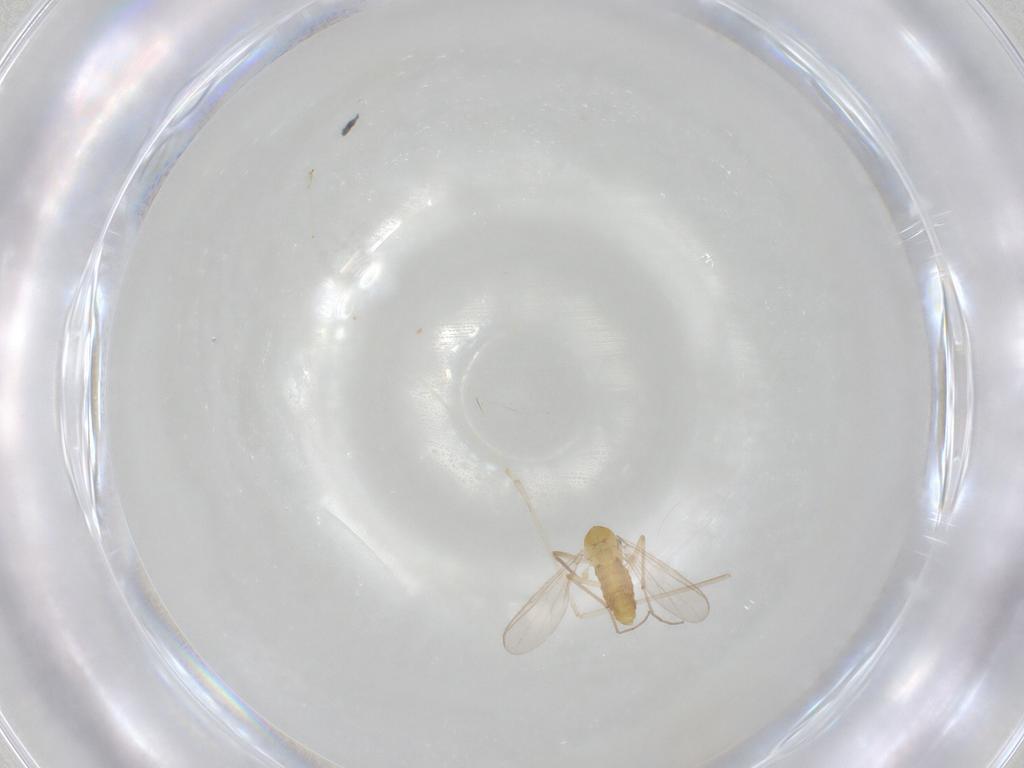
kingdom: Animalia
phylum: Arthropoda
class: Insecta
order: Diptera
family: Chironomidae
